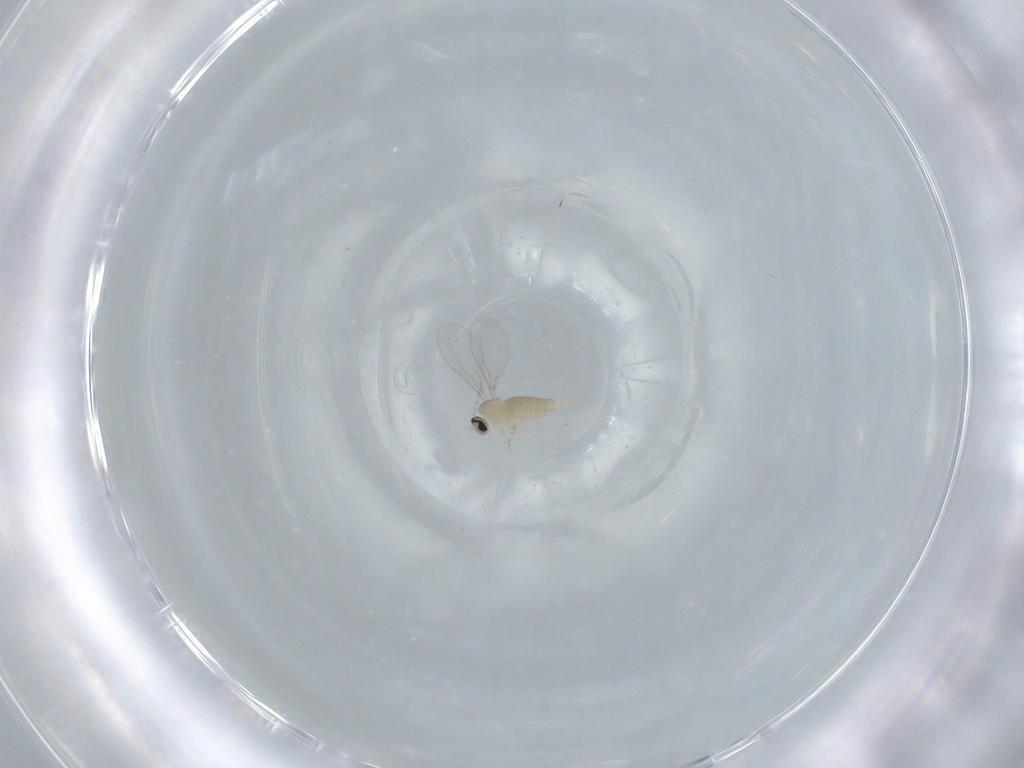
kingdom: Animalia
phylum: Arthropoda
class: Insecta
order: Diptera
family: Cecidomyiidae
